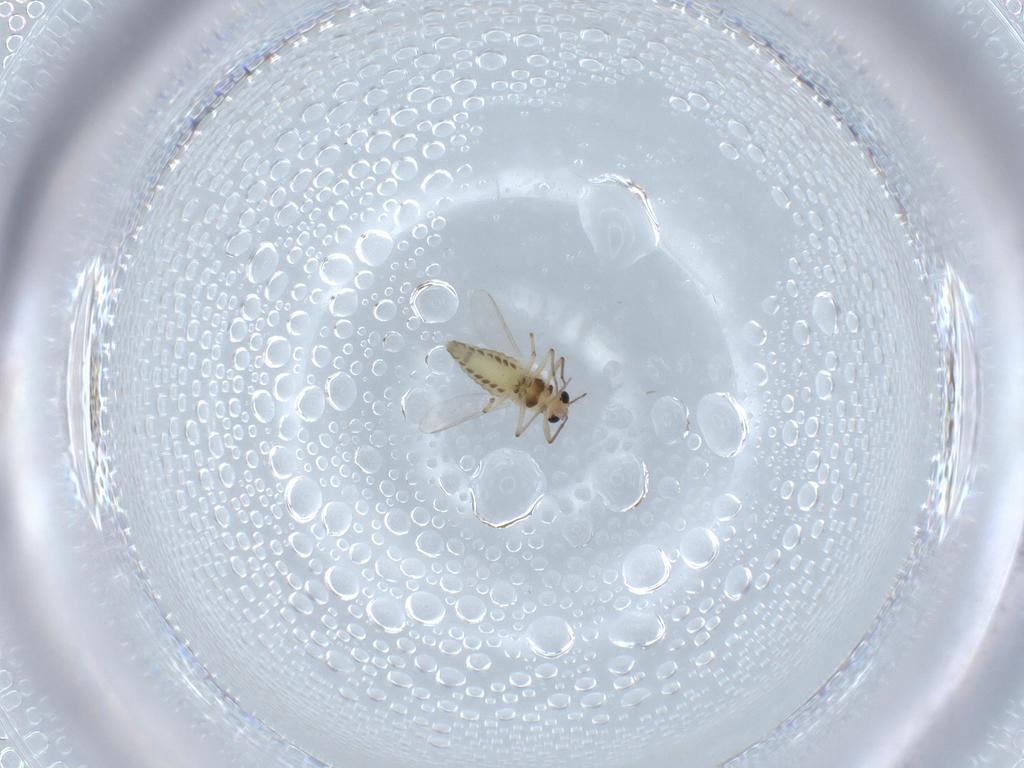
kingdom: Animalia
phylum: Arthropoda
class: Insecta
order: Diptera
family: Chironomidae
